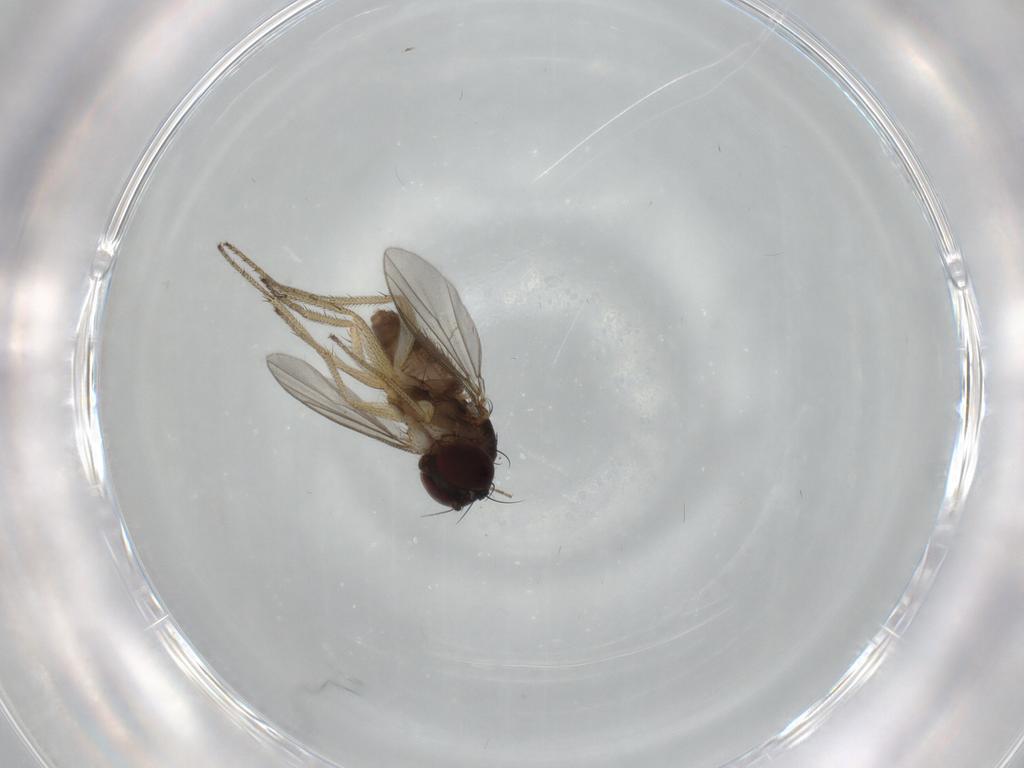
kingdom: Animalia
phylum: Arthropoda
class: Insecta
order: Diptera
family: Dolichopodidae
